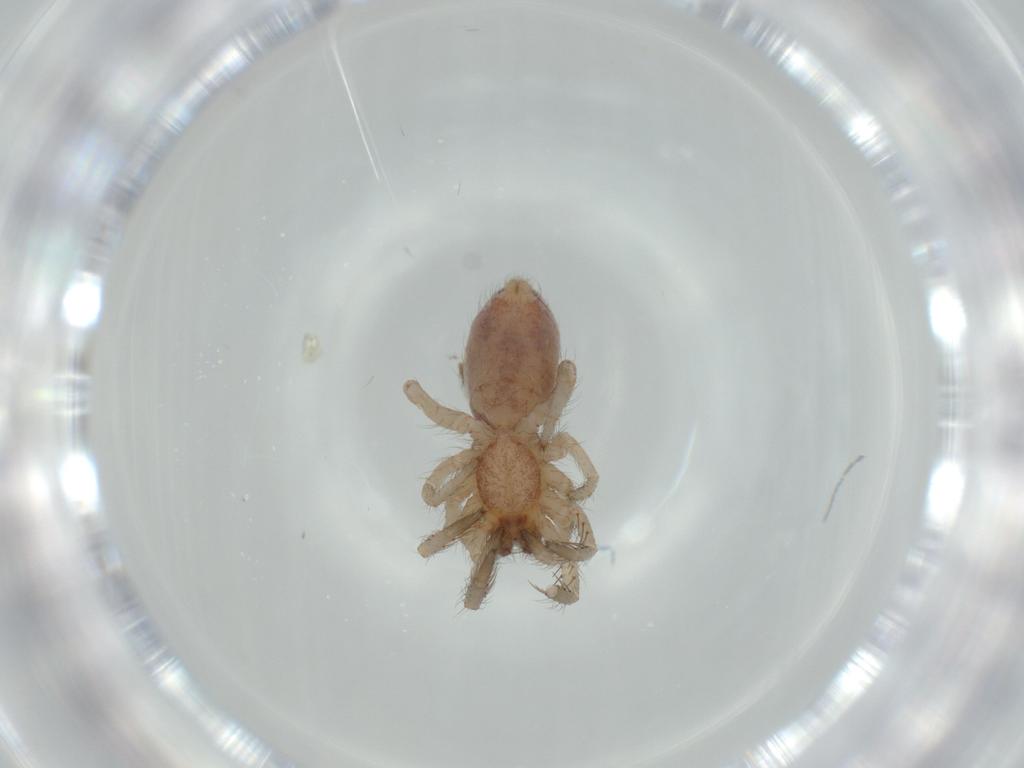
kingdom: Animalia
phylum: Arthropoda
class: Arachnida
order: Araneae
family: Segestriidae
